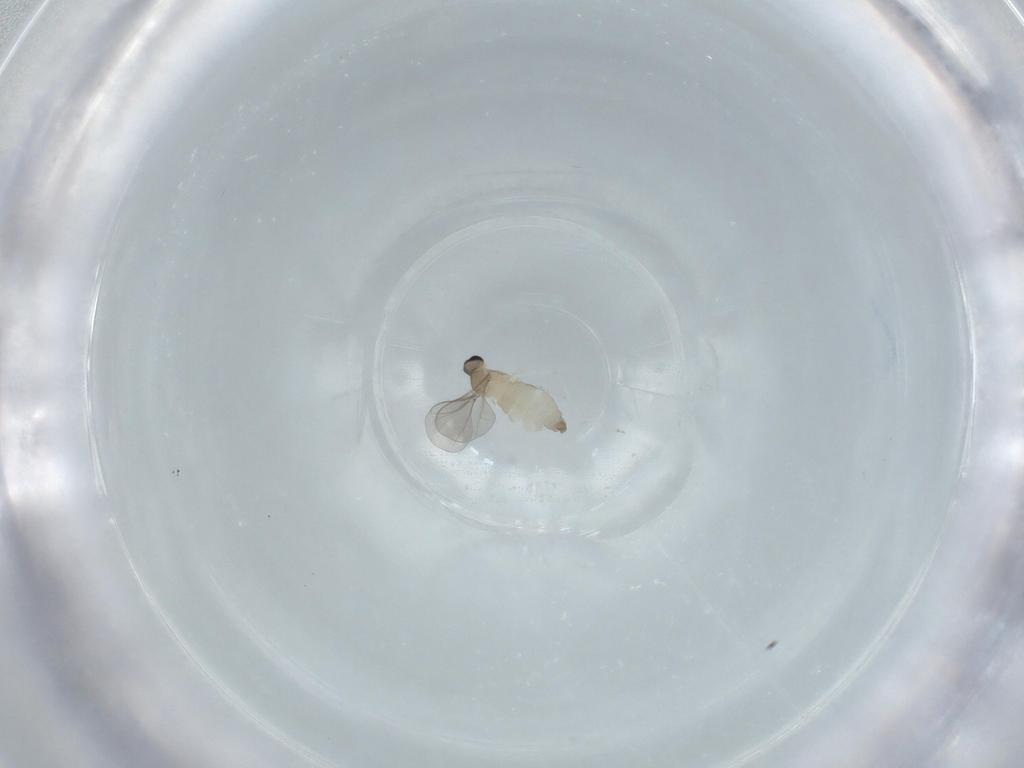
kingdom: Animalia
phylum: Arthropoda
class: Insecta
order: Diptera
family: Cecidomyiidae
